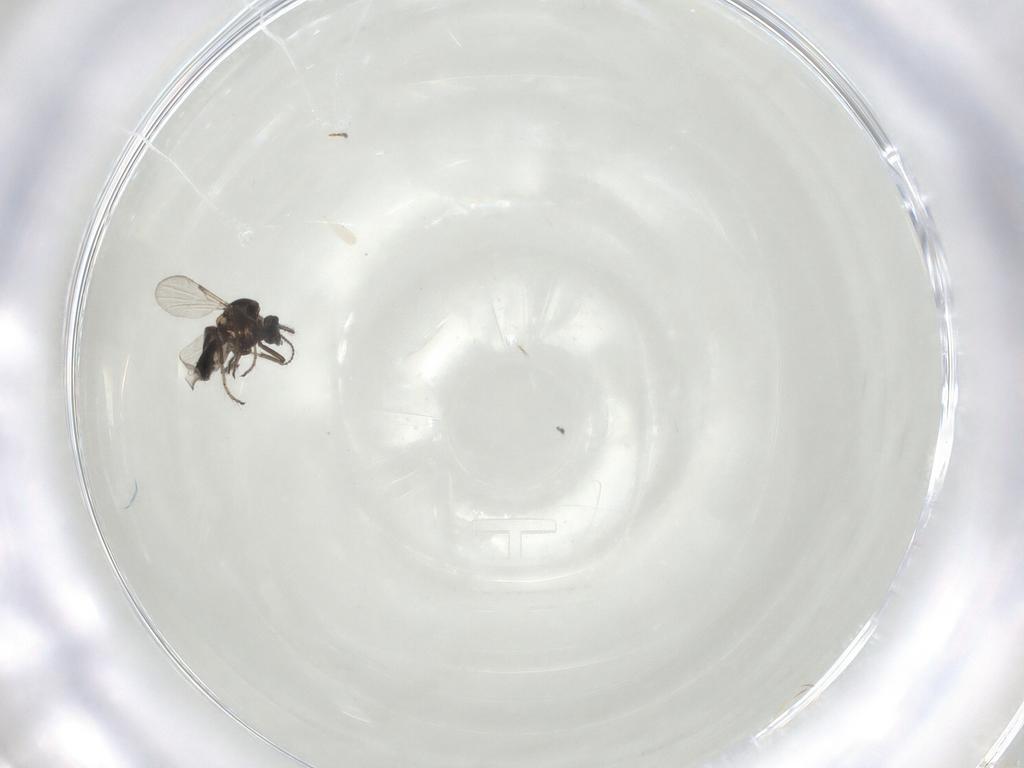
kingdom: Animalia
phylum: Arthropoda
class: Insecta
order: Diptera
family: Ceratopogonidae
